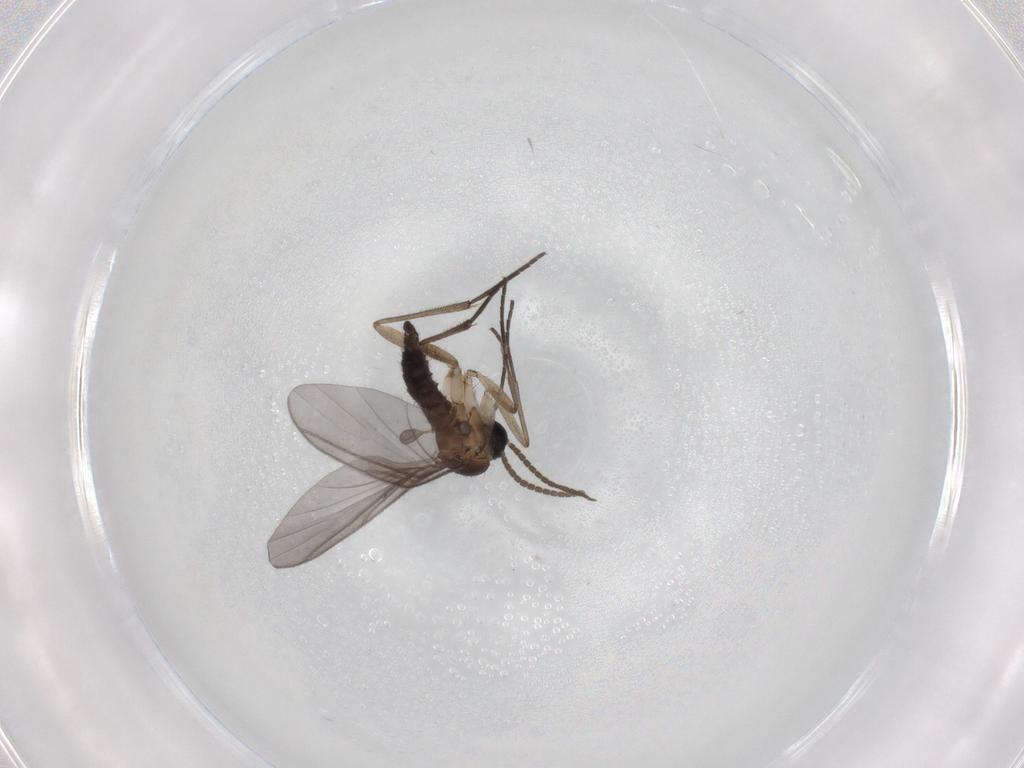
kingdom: Animalia
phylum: Arthropoda
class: Insecta
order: Diptera
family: Sciaridae
